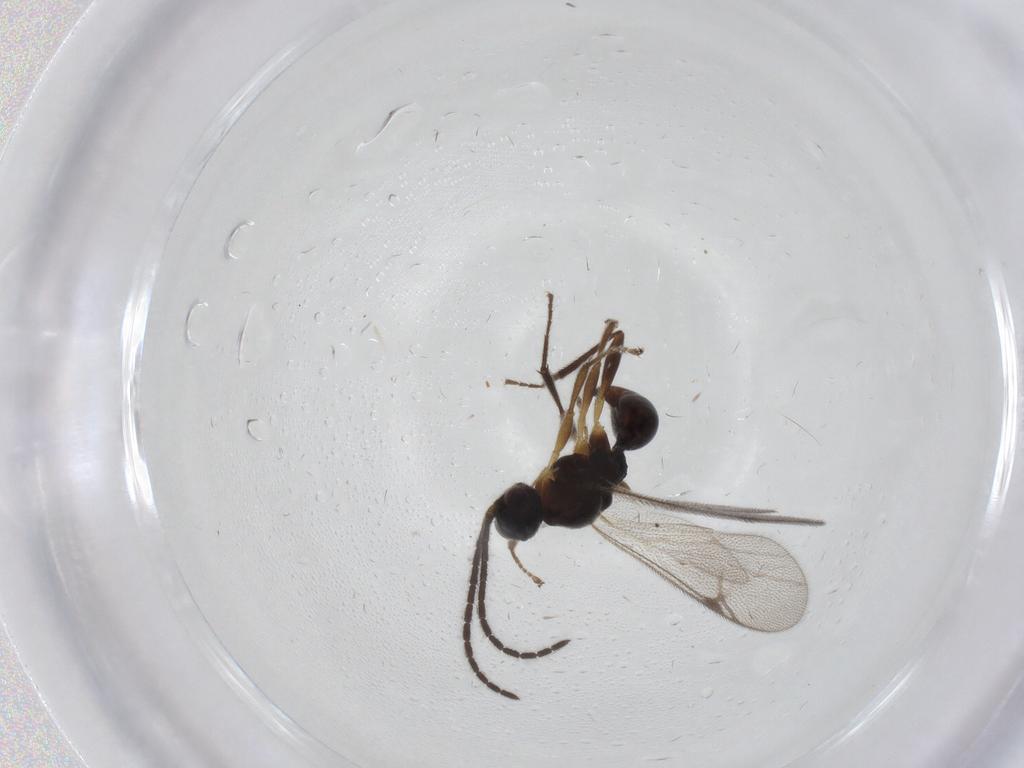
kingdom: Animalia
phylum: Arthropoda
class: Insecta
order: Hymenoptera
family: Proctotrupidae
